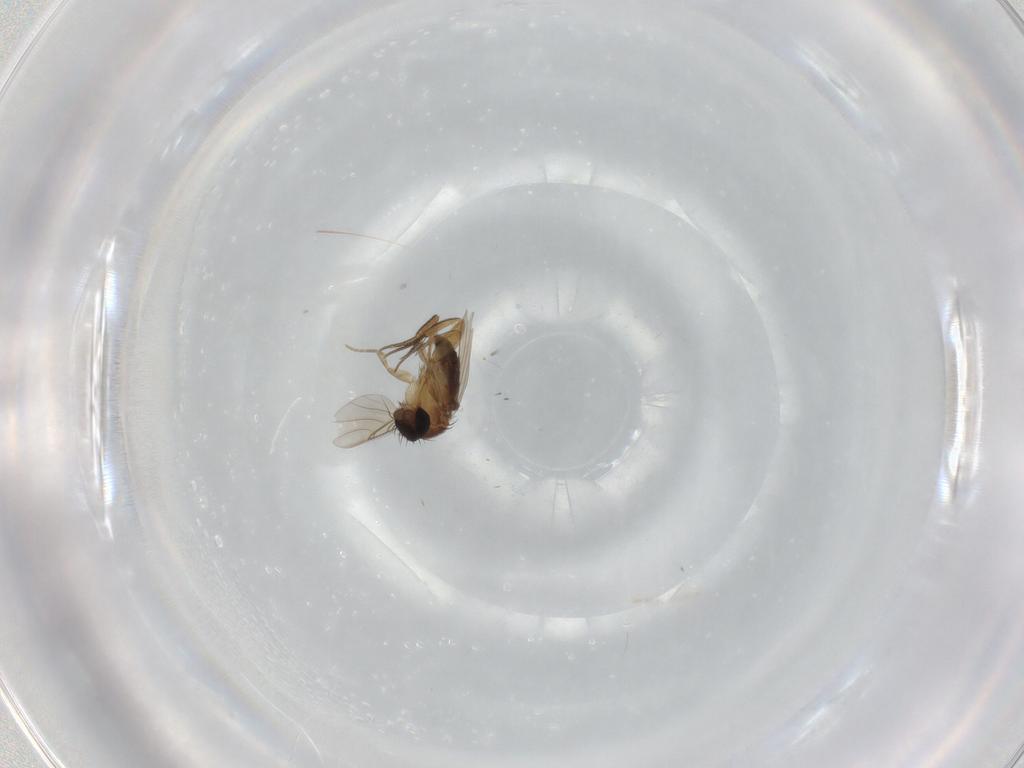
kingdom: Animalia
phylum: Arthropoda
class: Insecta
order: Diptera
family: Phoridae
